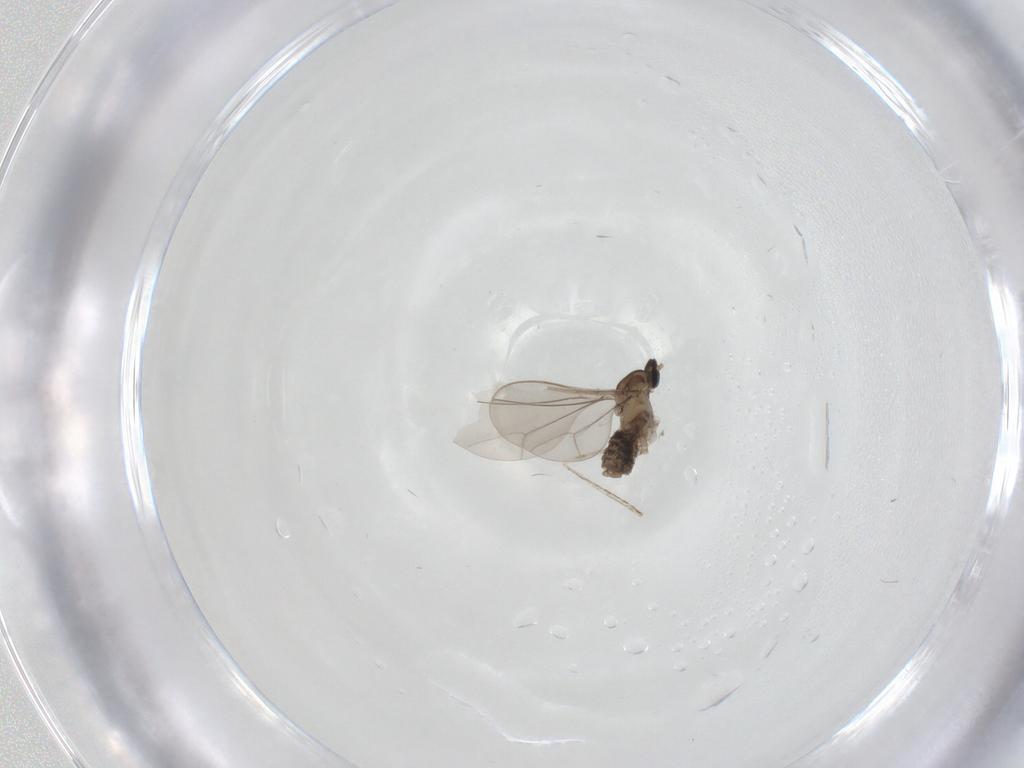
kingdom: Animalia
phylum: Arthropoda
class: Insecta
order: Diptera
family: Cecidomyiidae
